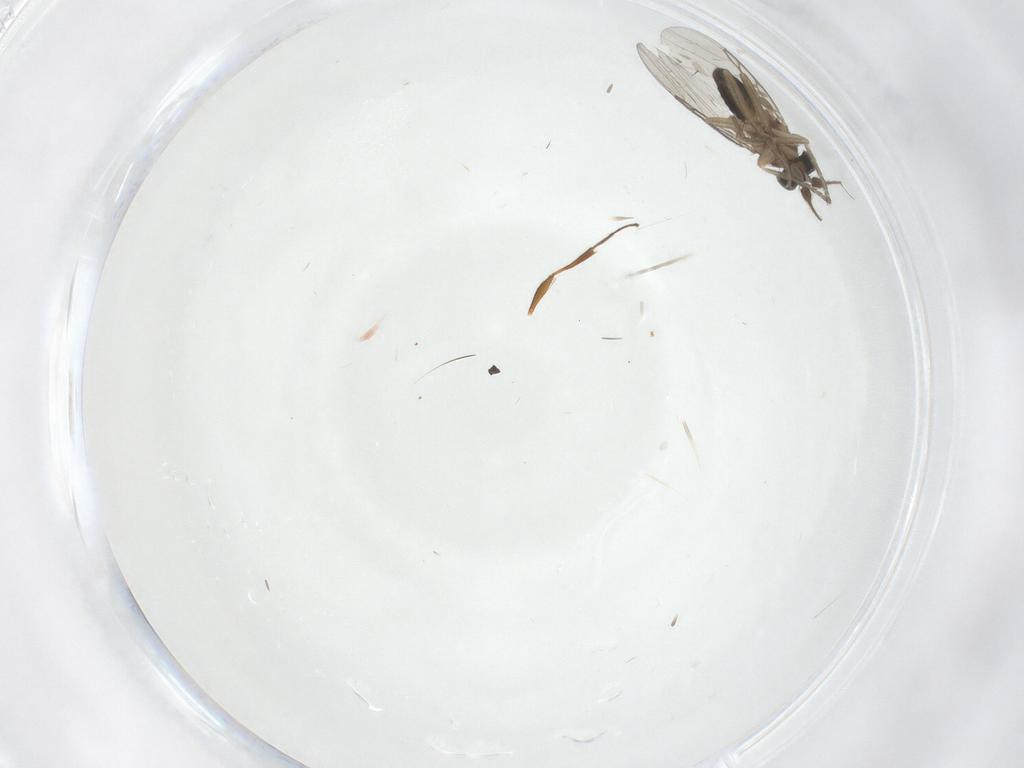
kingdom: Animalia
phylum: Arthropoda
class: Insecta
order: Diptera
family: Phoridae
